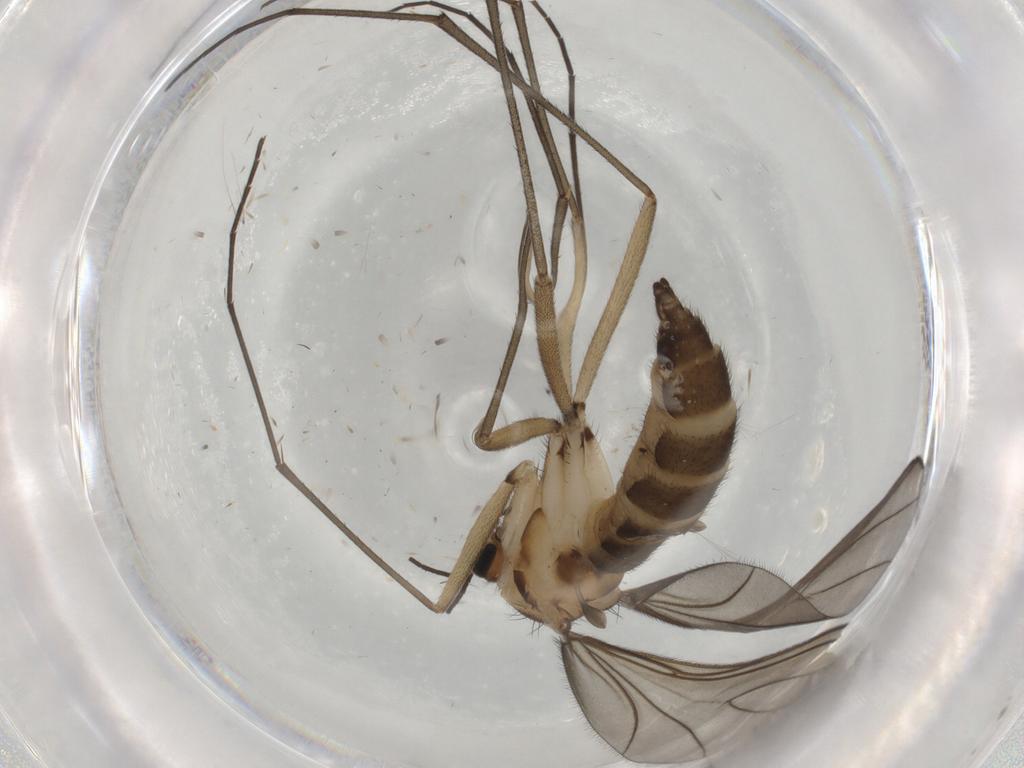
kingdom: Animalia
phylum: Arthropoda
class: Insecta
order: Diptera
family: Sciaridae
